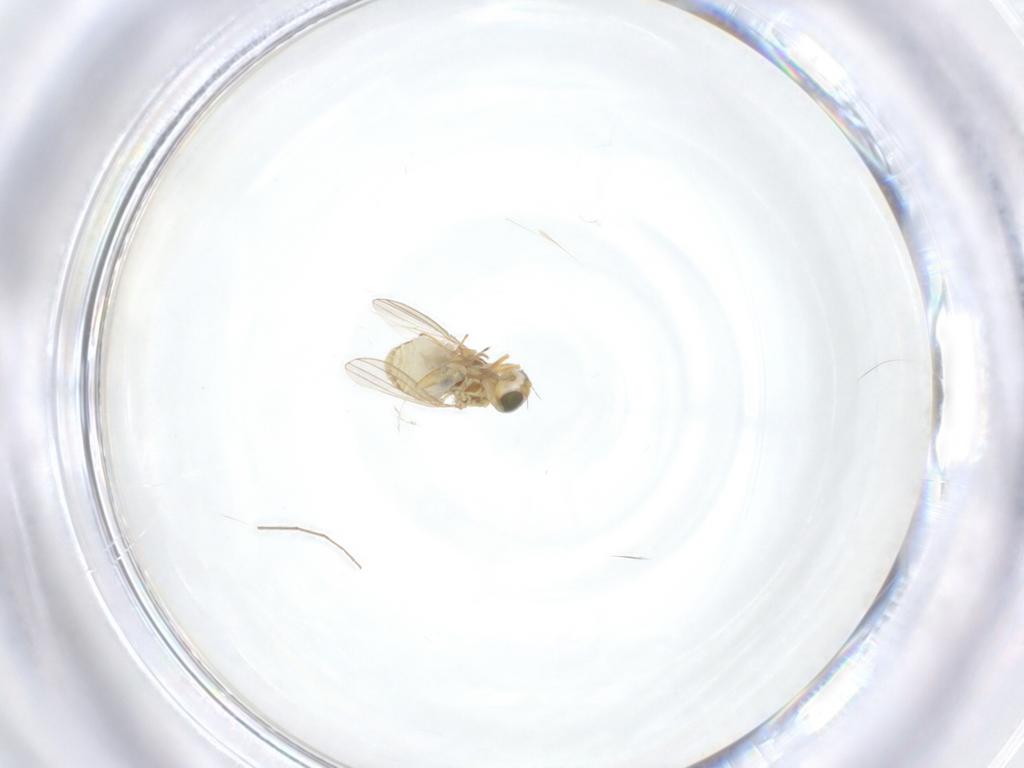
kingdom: Animalia
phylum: Arthropoda
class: Insecta
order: Diptera
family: Chyromyidae
